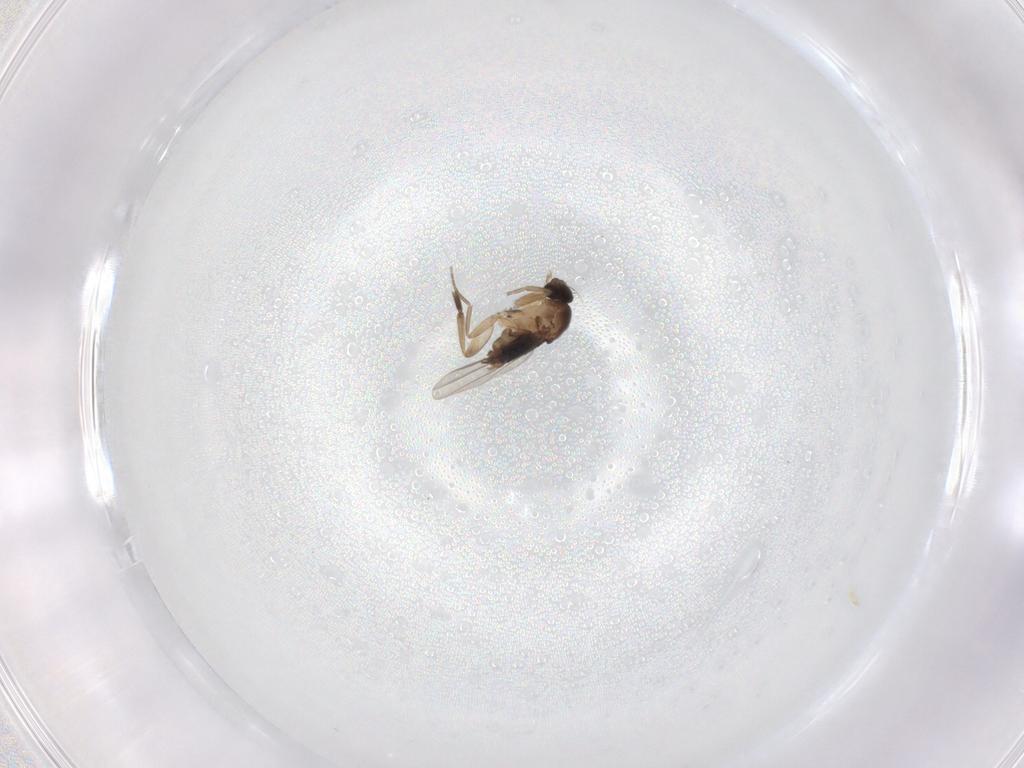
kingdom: Animalia
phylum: Arthropoda
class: Insecta
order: Diptera
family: Phoridae
